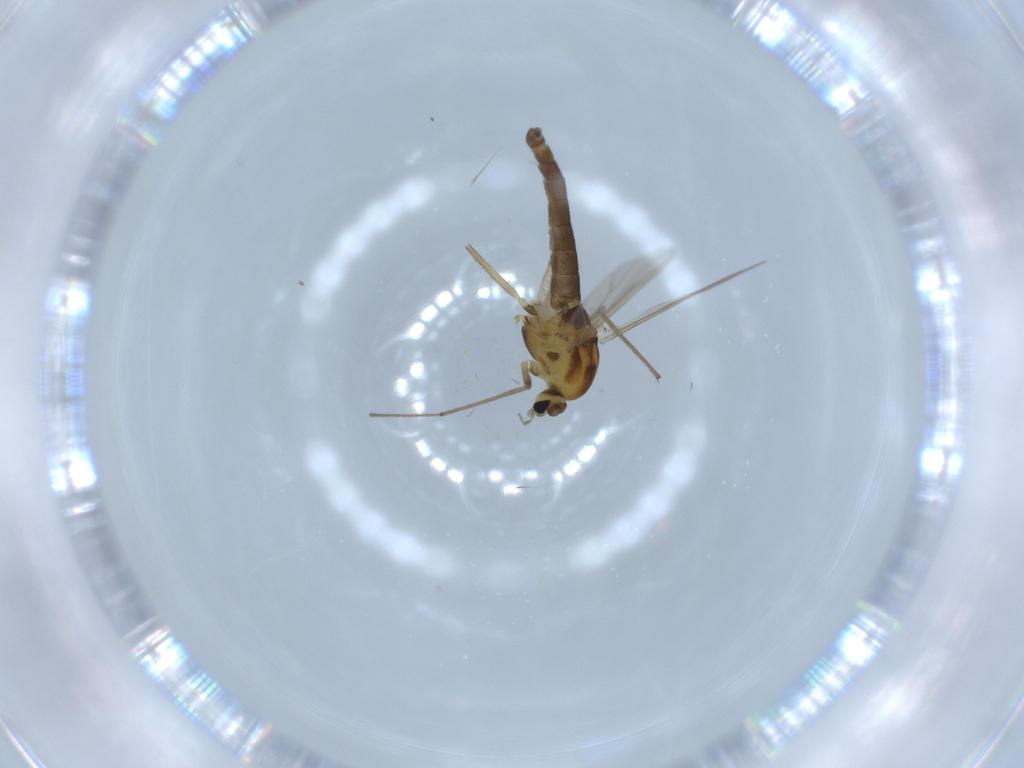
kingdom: Animalia
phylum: Arthropoda
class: Insecta
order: Diptera
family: Chironomidae
